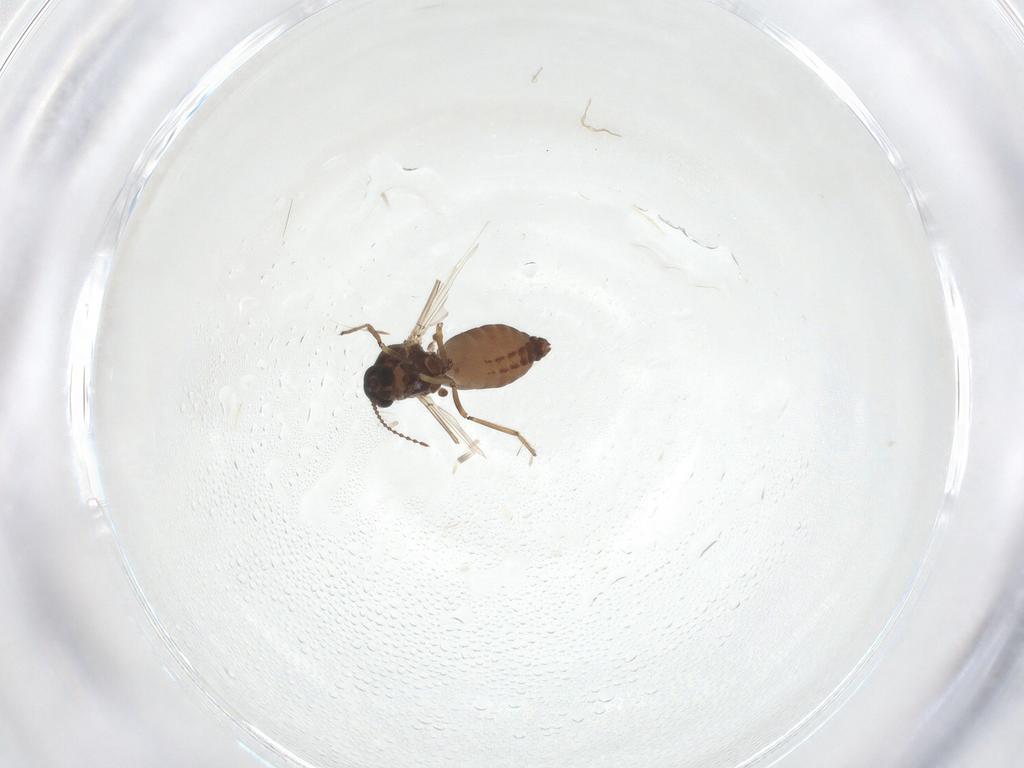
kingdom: Animalia
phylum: Arthropoda
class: Insecta
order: Diptera
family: Ceratopogonidae
